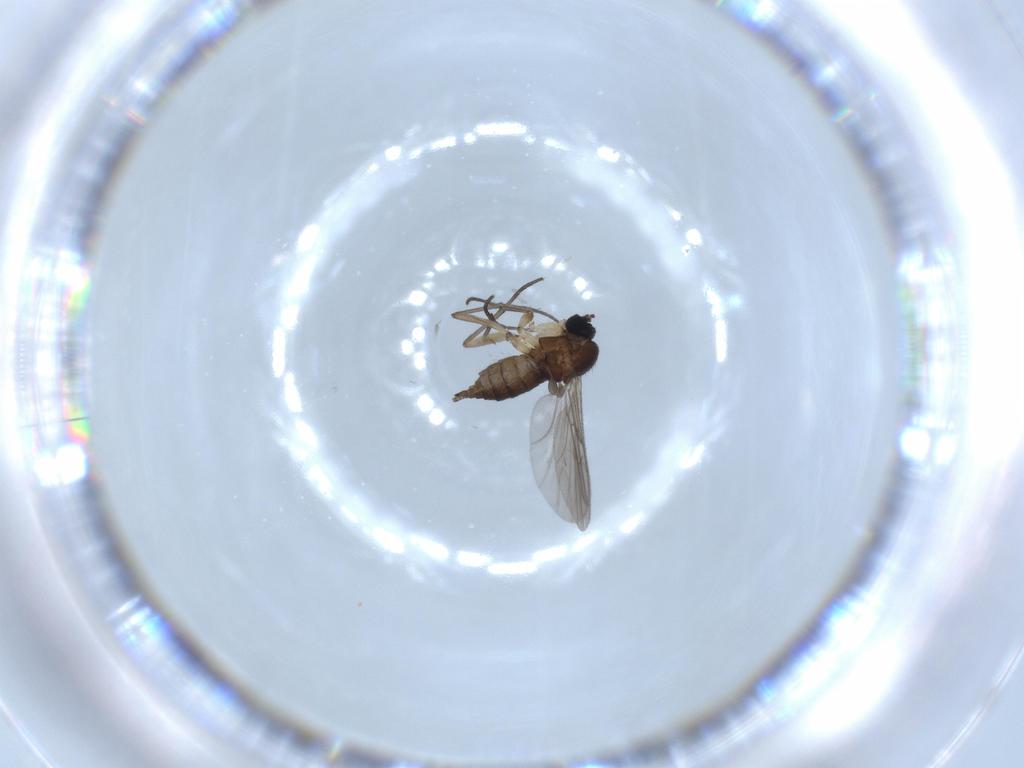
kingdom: Animalia
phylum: Arthropoda
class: Insecta
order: Diptera
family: Sciaridae
